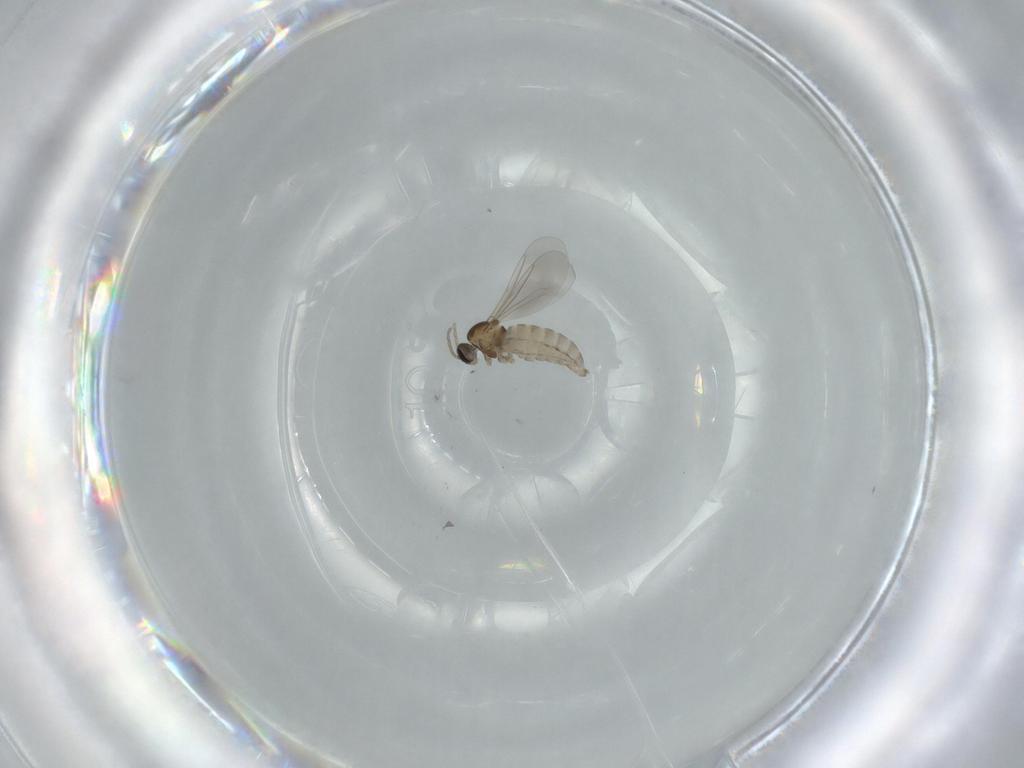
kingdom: Animalia
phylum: Arthropoda
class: Insecta
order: Diptera
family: Cecidomyiidae
